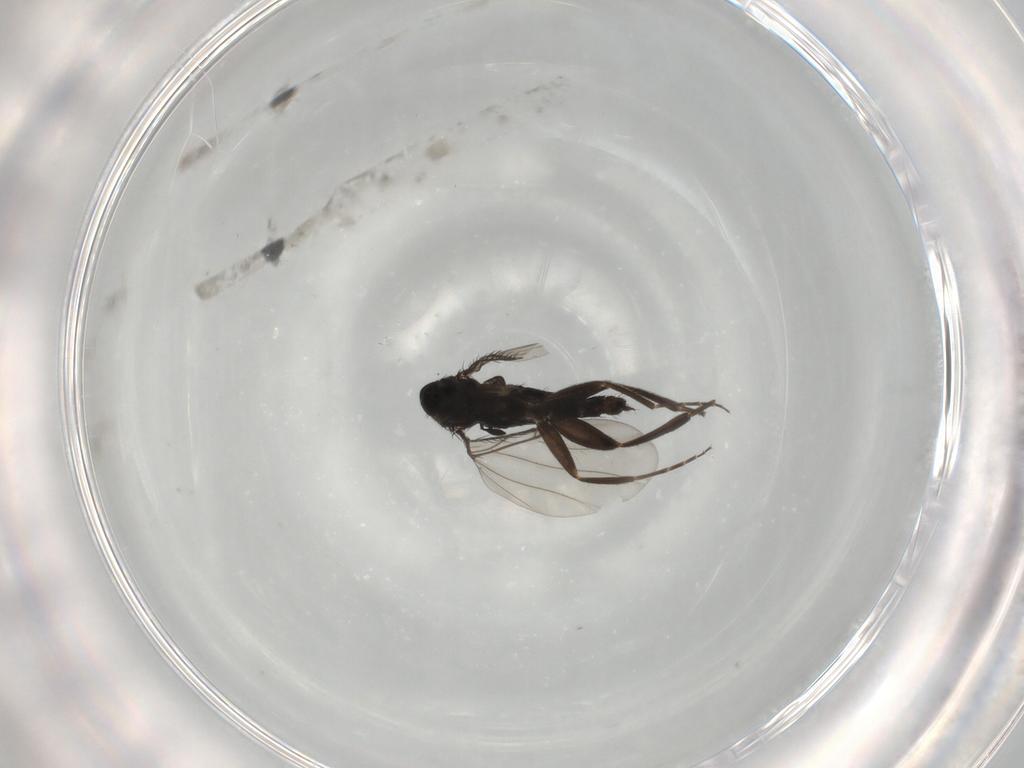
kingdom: Animalia
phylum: Arthropoda
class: Insecta
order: Diptera
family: Phoridae
